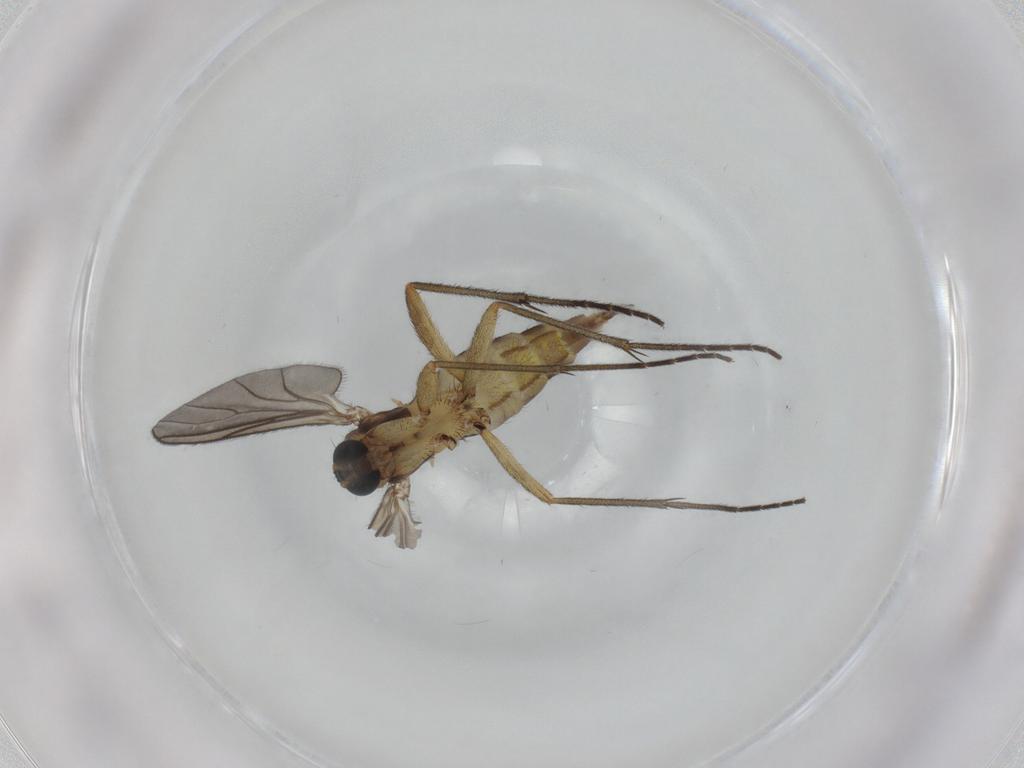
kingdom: Animalia
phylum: Arthropoda
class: Insecta
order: Diptera
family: Sciaridae
